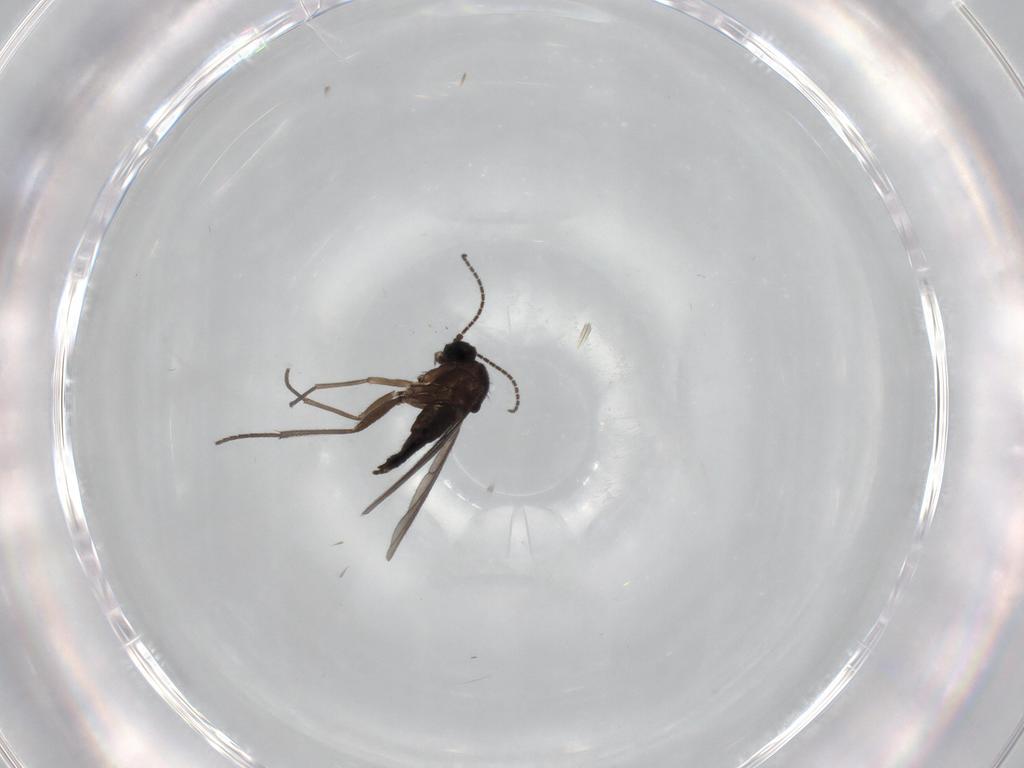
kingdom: Animalia
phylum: Arthropoda
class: Insecta
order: Diptera
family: Sciaridae
